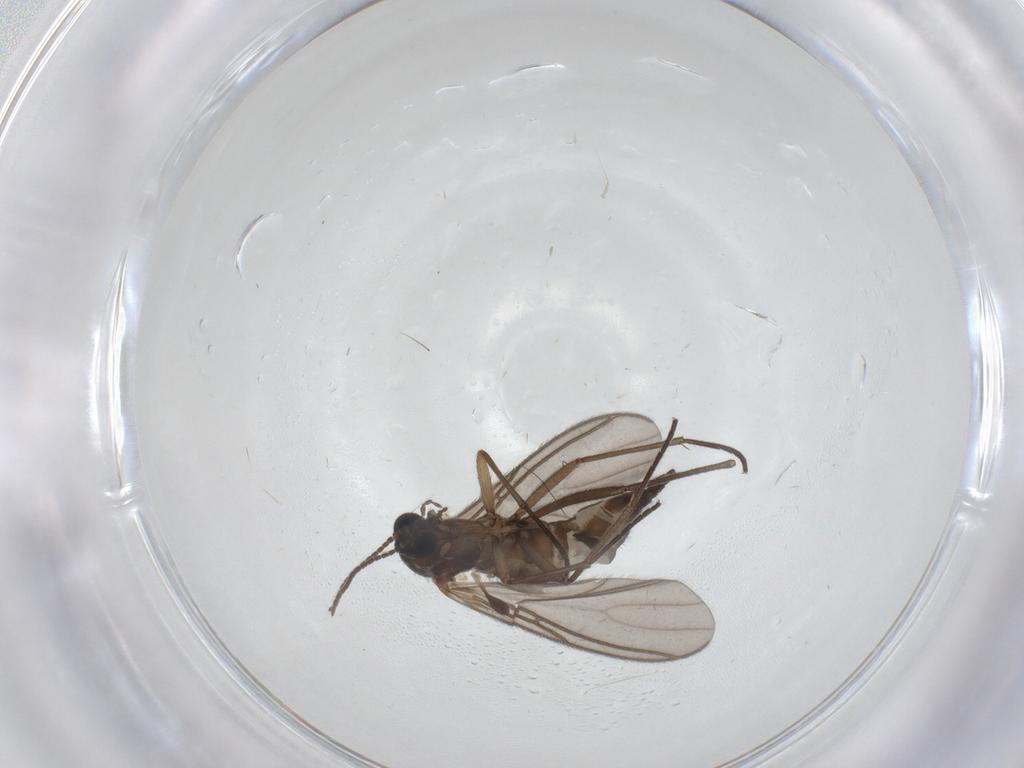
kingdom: Animalia
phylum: Arthropoda
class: Insecta
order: Diptera
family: Sciaridae
